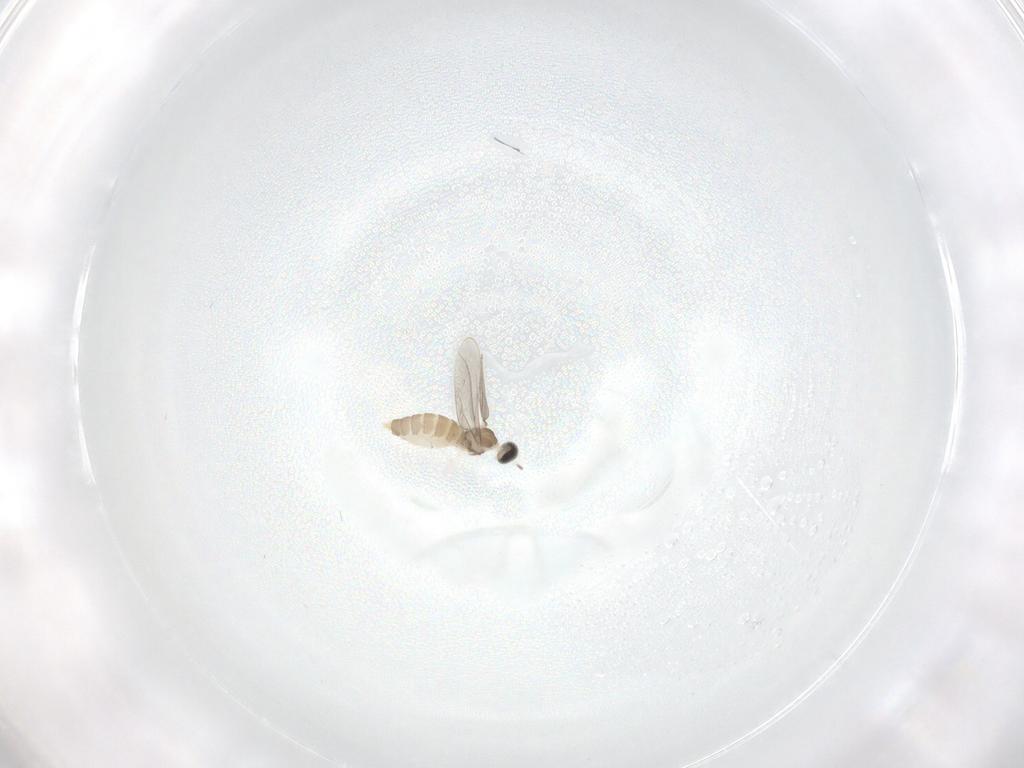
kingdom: Animalia
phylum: Arthropoda
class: Insecta
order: Diptera
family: Cecidomyiidae
